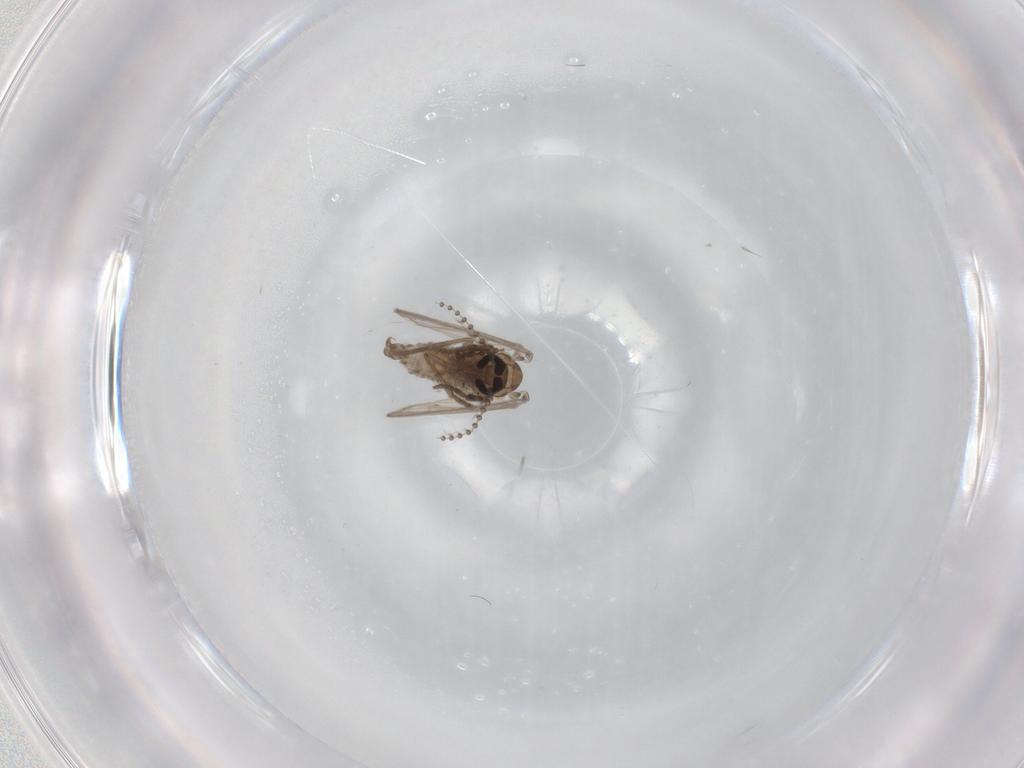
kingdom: Animalia
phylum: Arthropoda
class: Insecta
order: Diptera
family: Psychodidae
